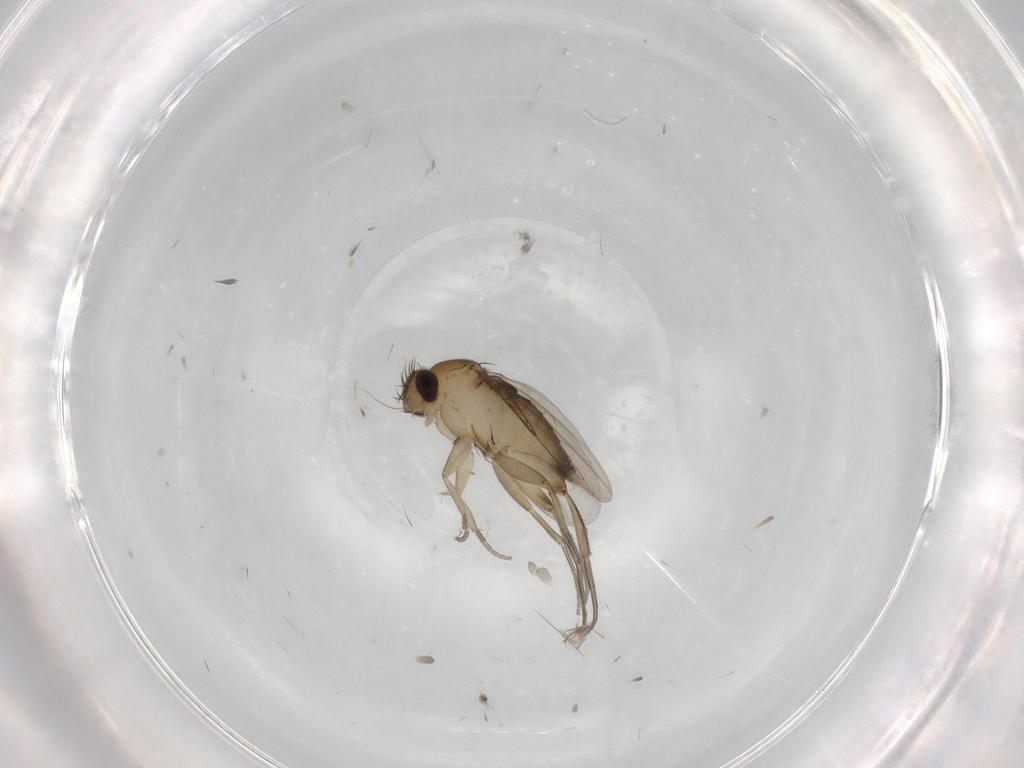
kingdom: Animalia
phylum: Arthropoda
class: Insecta
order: Diptera
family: Phoridae
